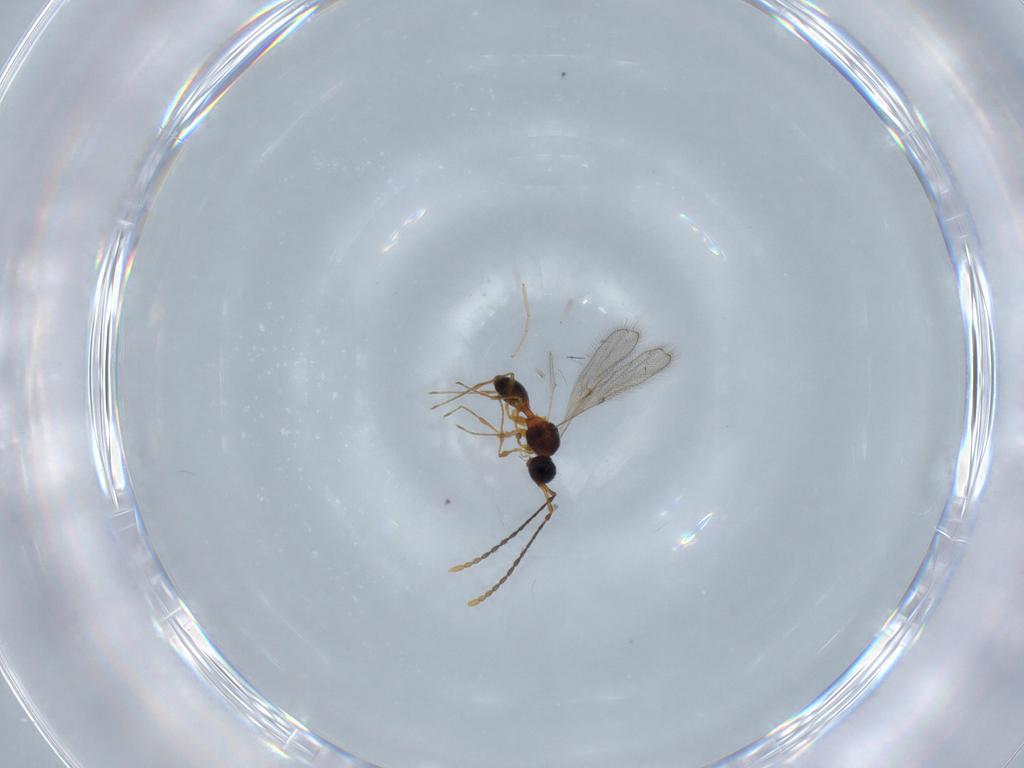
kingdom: Animalia
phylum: Arthropoda
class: Insecta
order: Hymenoptera
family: Diapriidae
